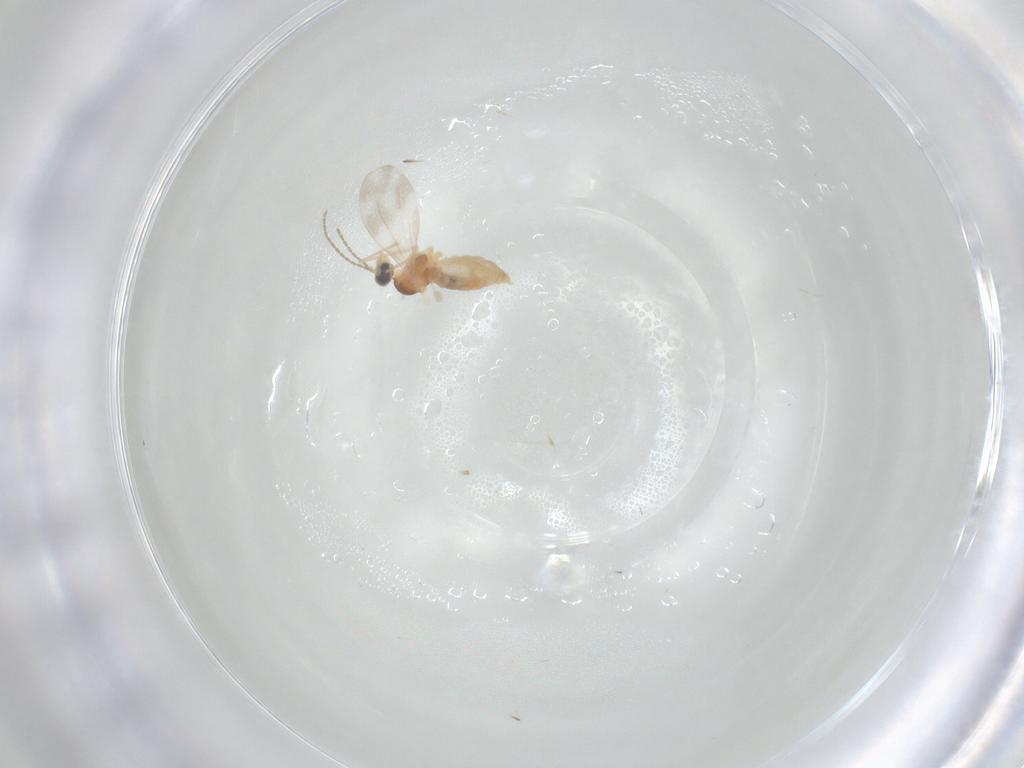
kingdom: Animalia
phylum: Arthropoda
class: Insecta
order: Diptera
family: Cecidomyiidae
